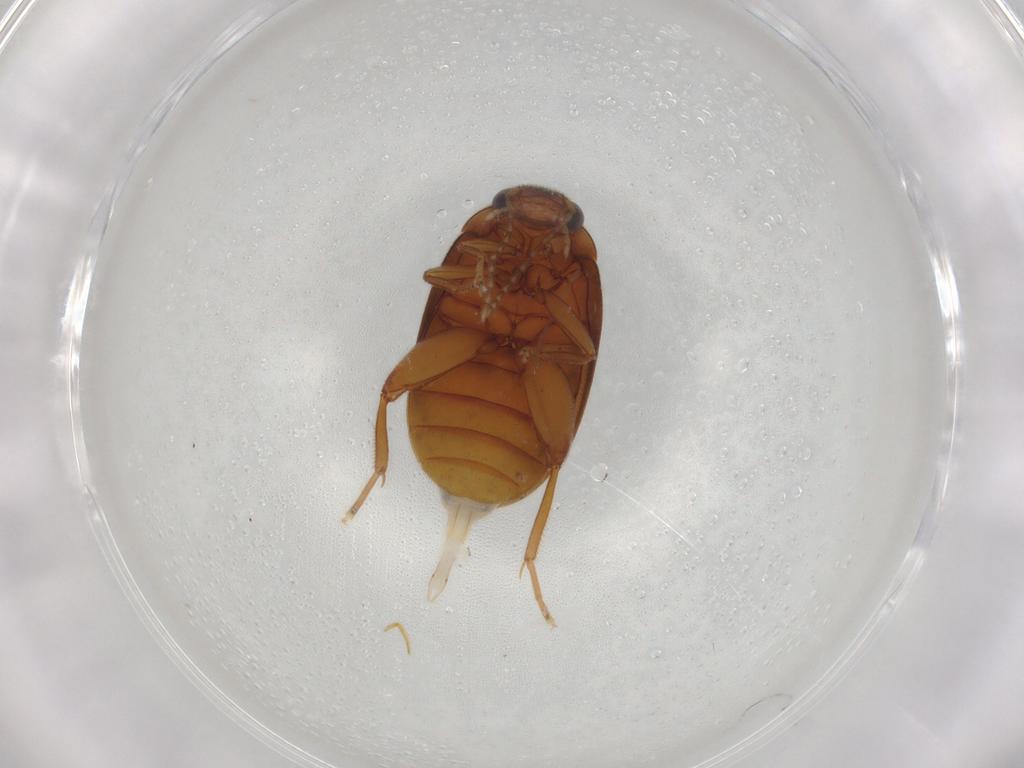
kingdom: Animalia
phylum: Arthropoda
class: Insecta
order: Coleoptera
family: Scirtidae
